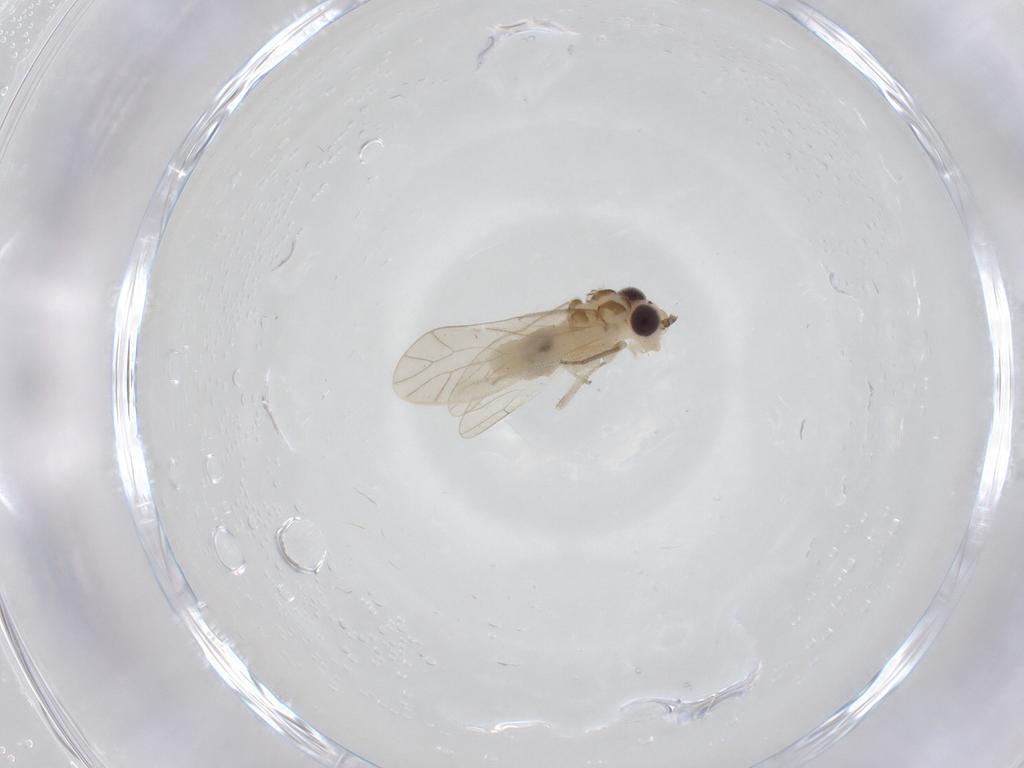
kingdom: Animalia
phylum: Arthropoda
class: Insecta
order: Psocodea
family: Caeciliusidae
